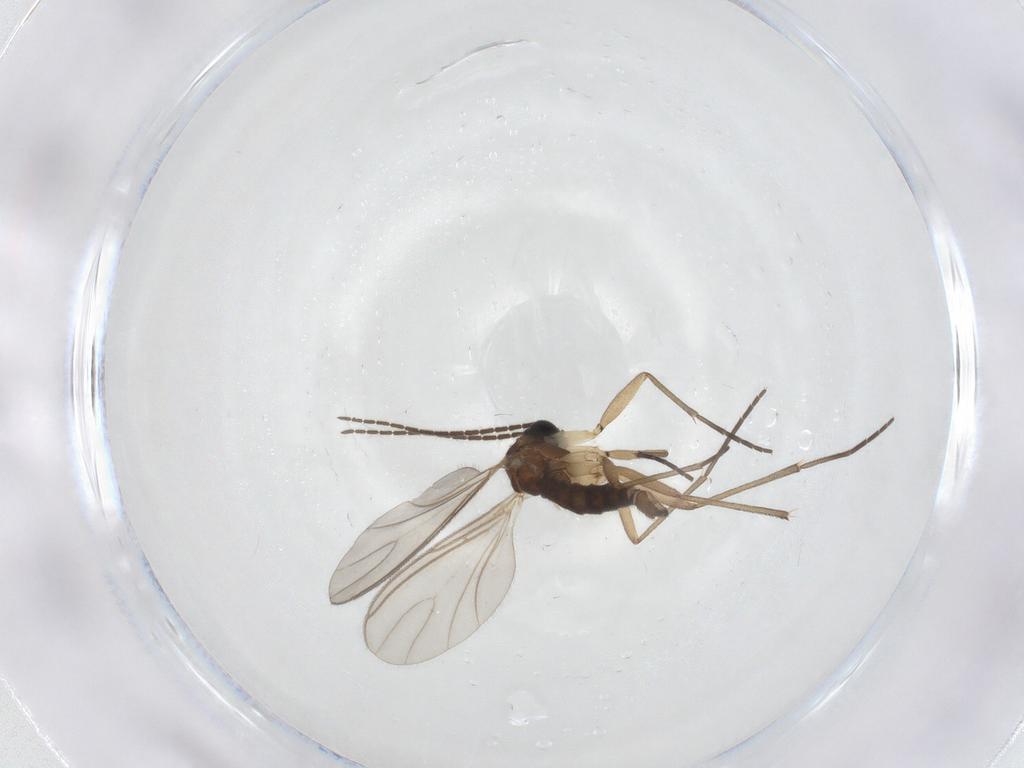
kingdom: Animalia
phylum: Arthropoda
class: Insecta
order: Diptera
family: Sciaridae
